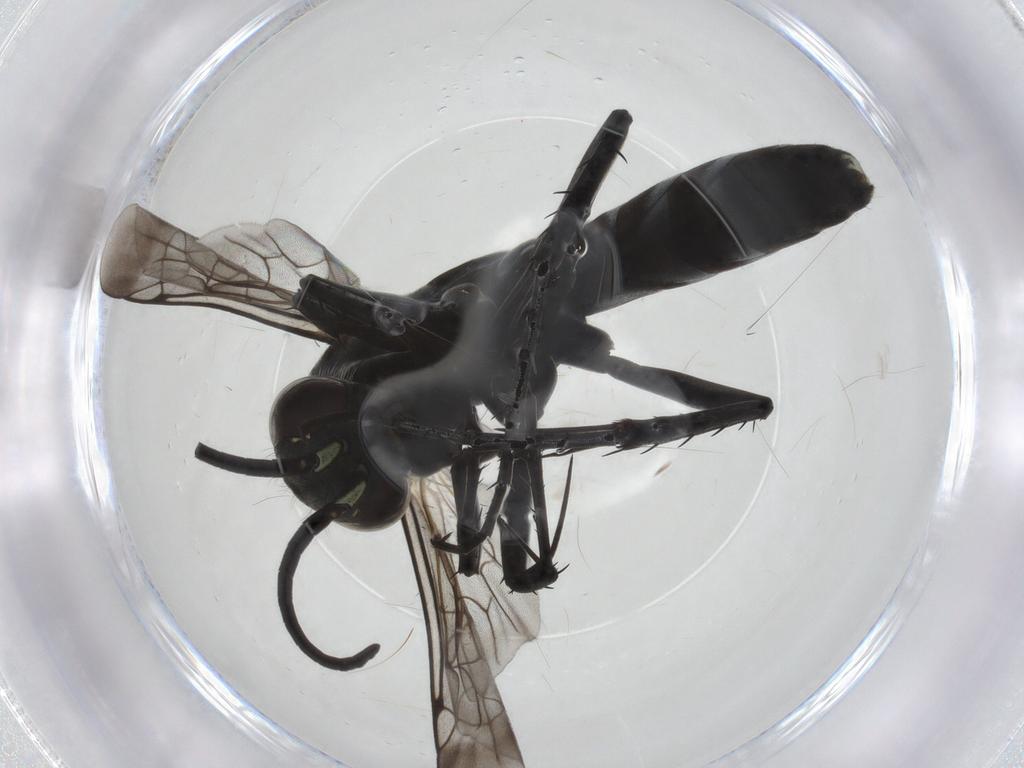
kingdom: Animalia
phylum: Arthropoda
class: Insecta
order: Hymenoptera
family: Pompilidae
